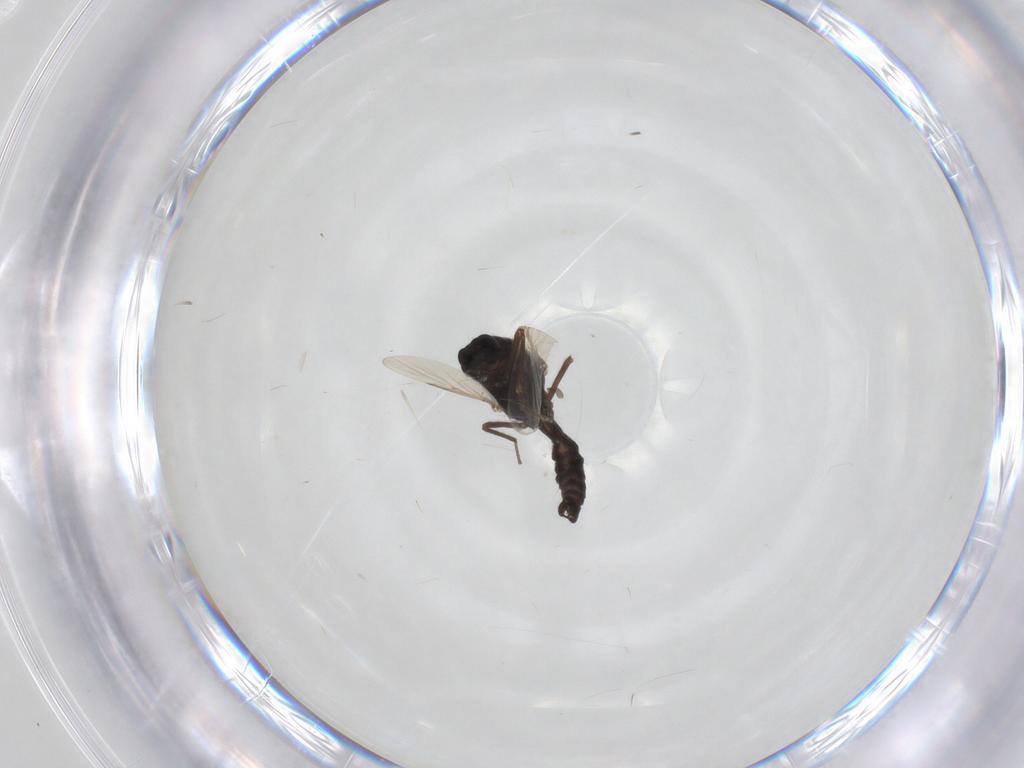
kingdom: Animalia
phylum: Arthropoda
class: Insecta
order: Diptera
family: Ceratopogonidae
